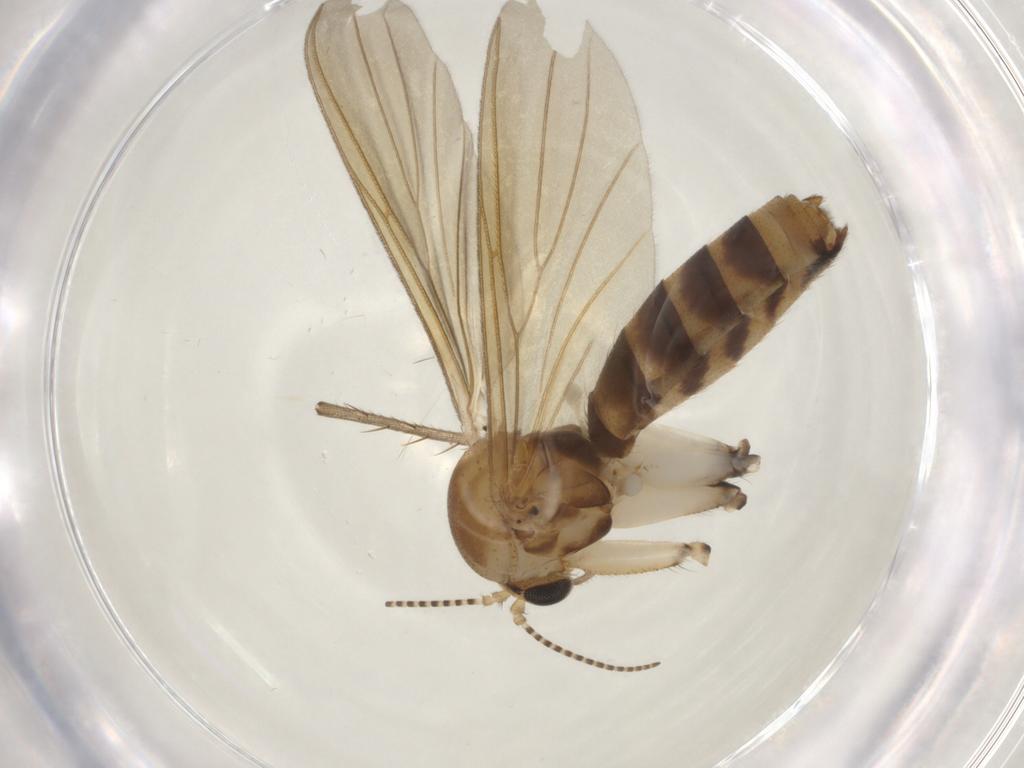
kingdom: Animalia
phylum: Arthropoda
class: Insecta
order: Diptera
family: Mycetophilidae
